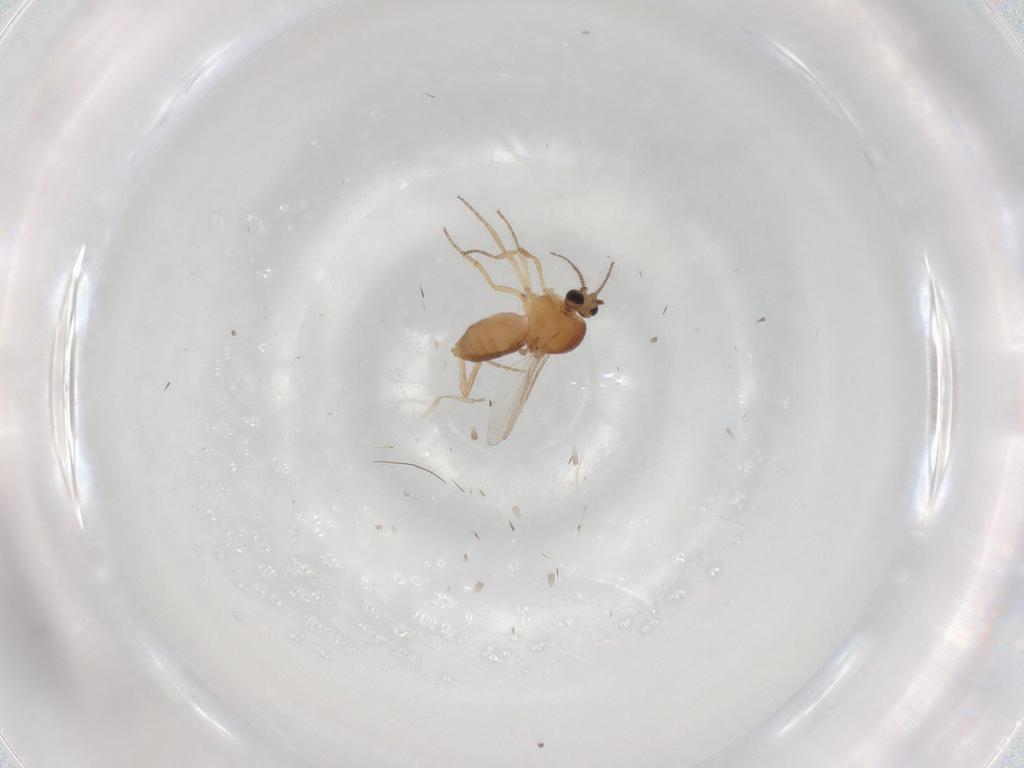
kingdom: Animalia
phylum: Arthropoda
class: Insecta
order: Diptera
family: Ceratopogonidae
